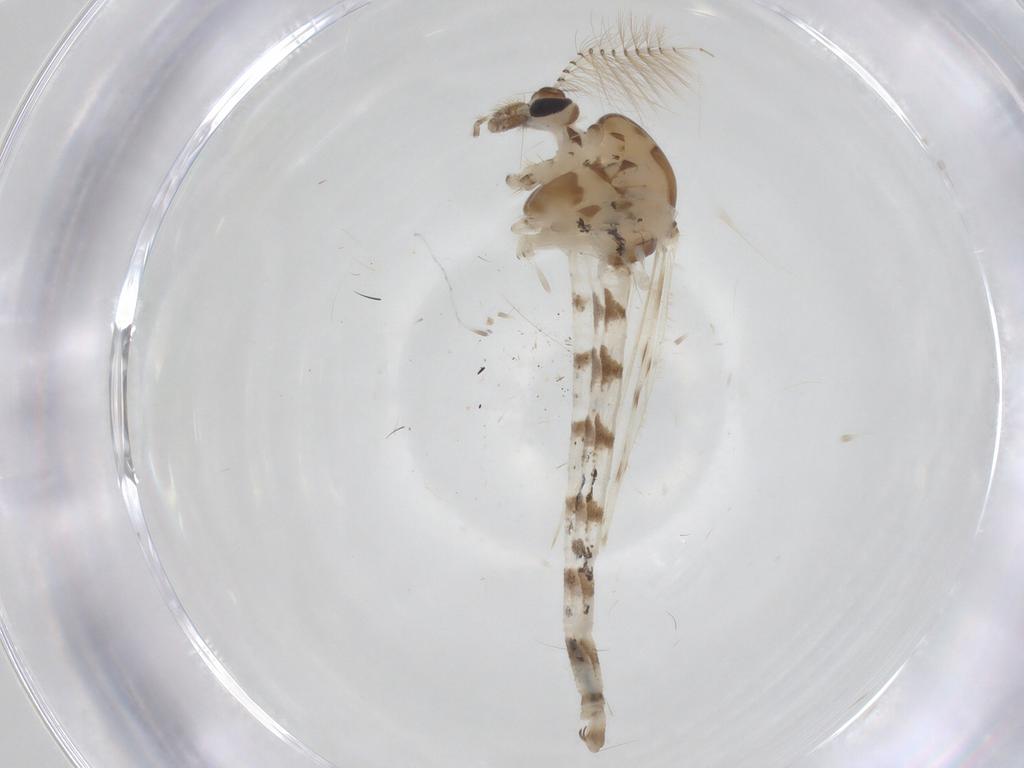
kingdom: Animalia
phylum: Arthropoda
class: Insecta
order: Diptera
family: Chaoboridae
